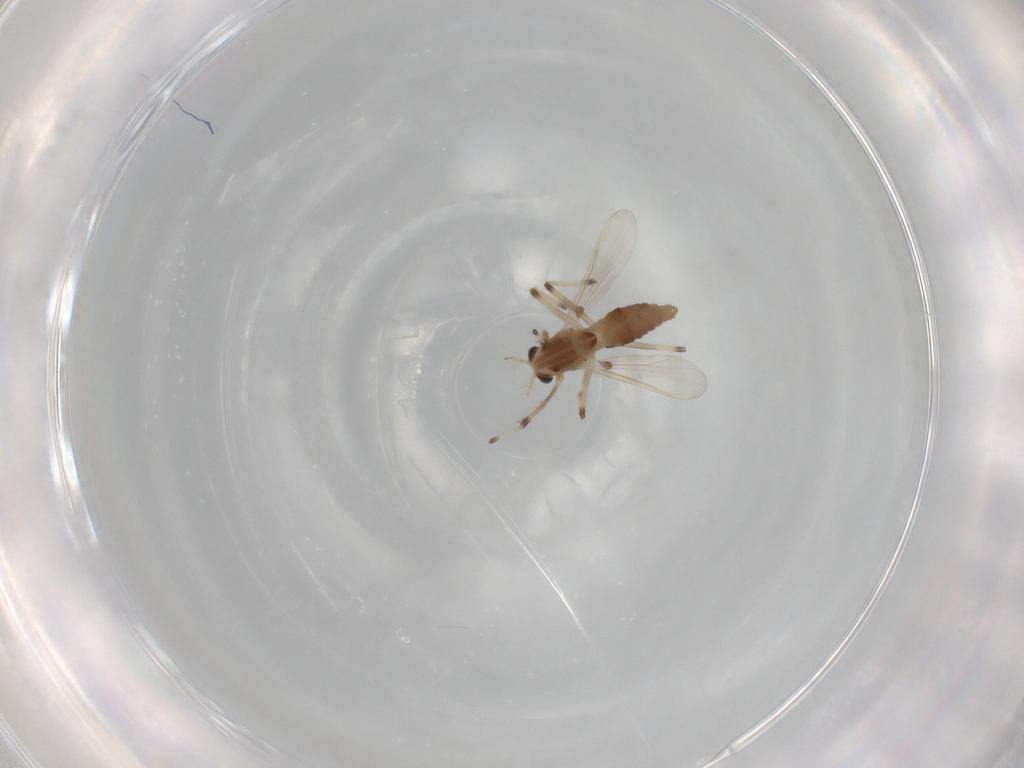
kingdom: Animalia
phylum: Arthropoda
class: Insecta
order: Diptera
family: Chironomidae
